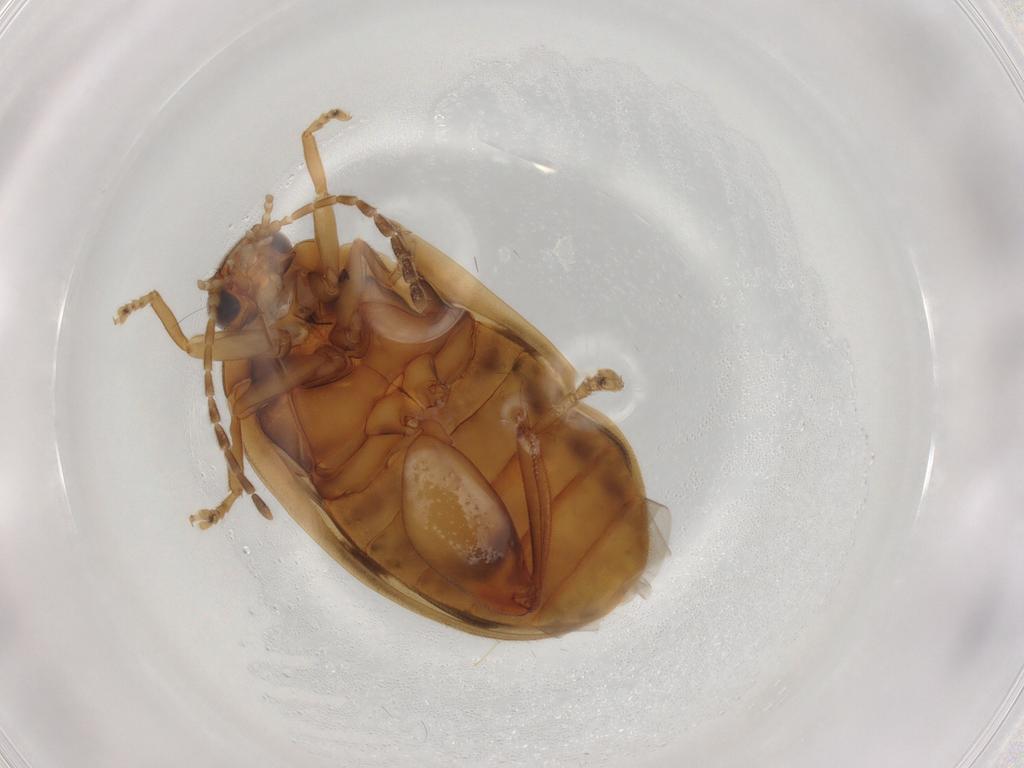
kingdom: Animalia
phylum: Arthropoda
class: Insecta
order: Coleoptera
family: Scirtidae
